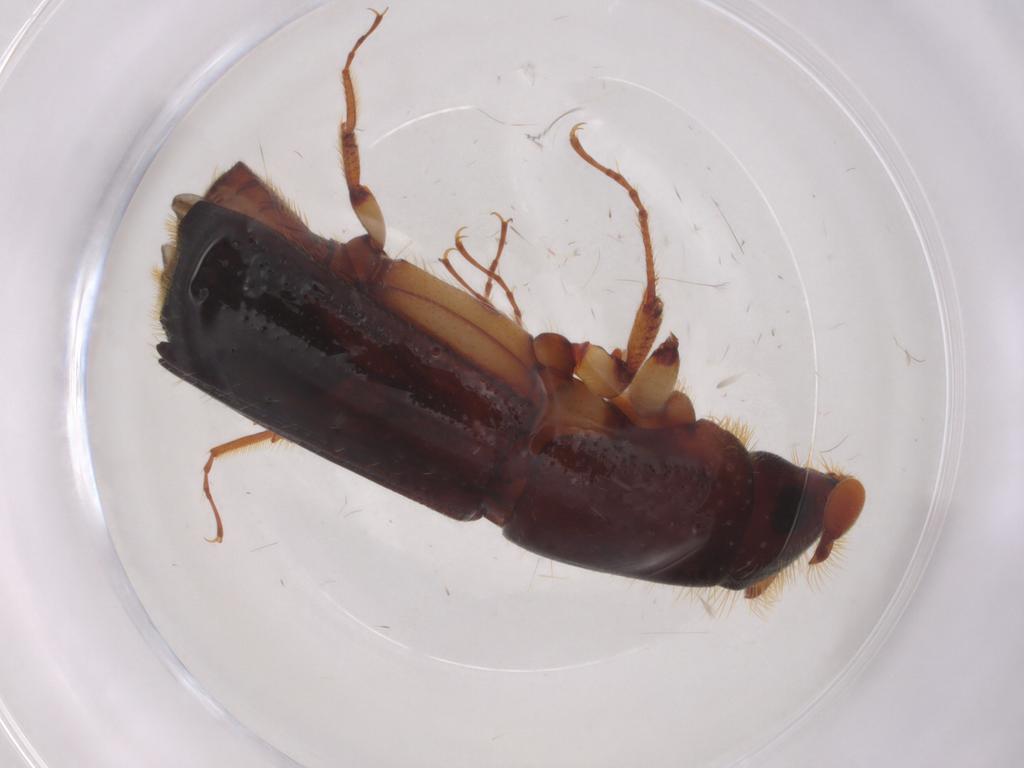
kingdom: Animalia
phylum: Arthropoda
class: Insecta
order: Coleoptera
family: Curculionidae
